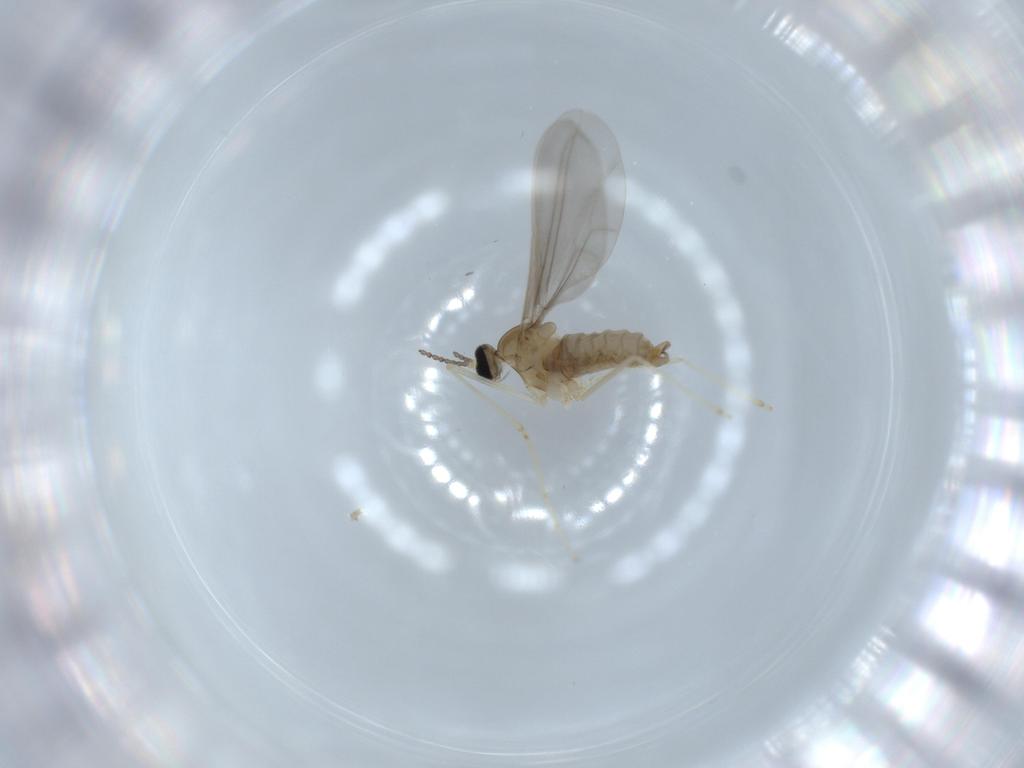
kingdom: Animalia
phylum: Arthropoda
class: Insecta
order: Diptera
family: Cecidomyiidae
